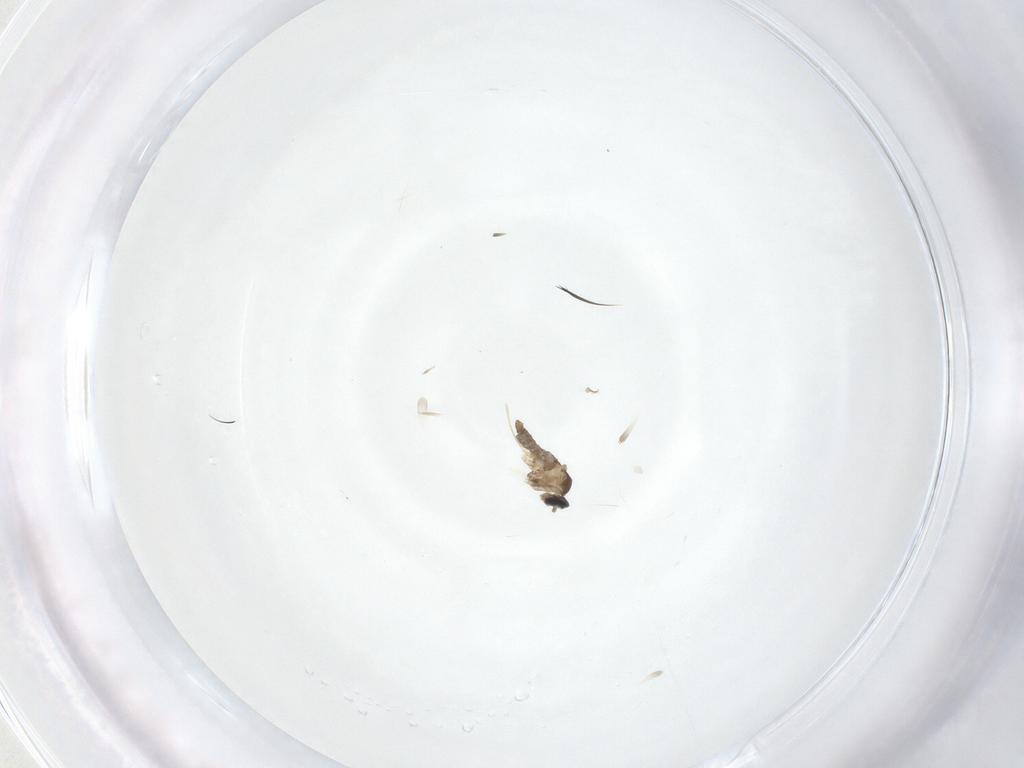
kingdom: Animalia
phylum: Arthropoda
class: Insecta
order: Diptera
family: Cecidomyiidae
